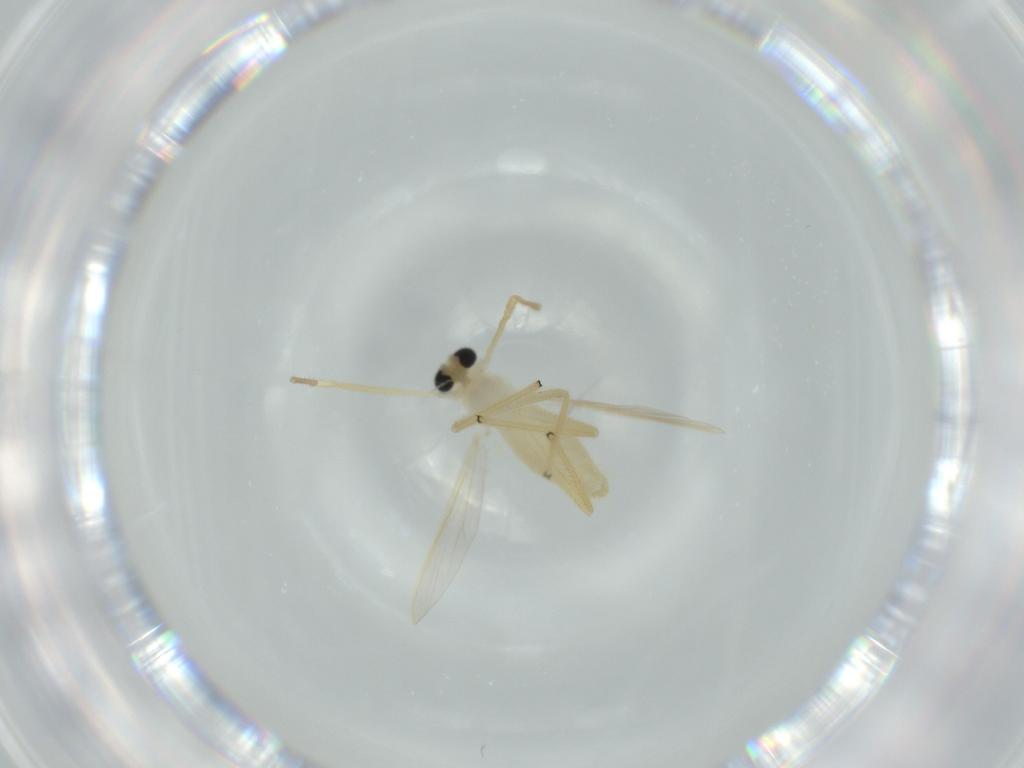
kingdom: Animalia
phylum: Arthropoda
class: Insecta
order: Diptera
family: Chironomidae
